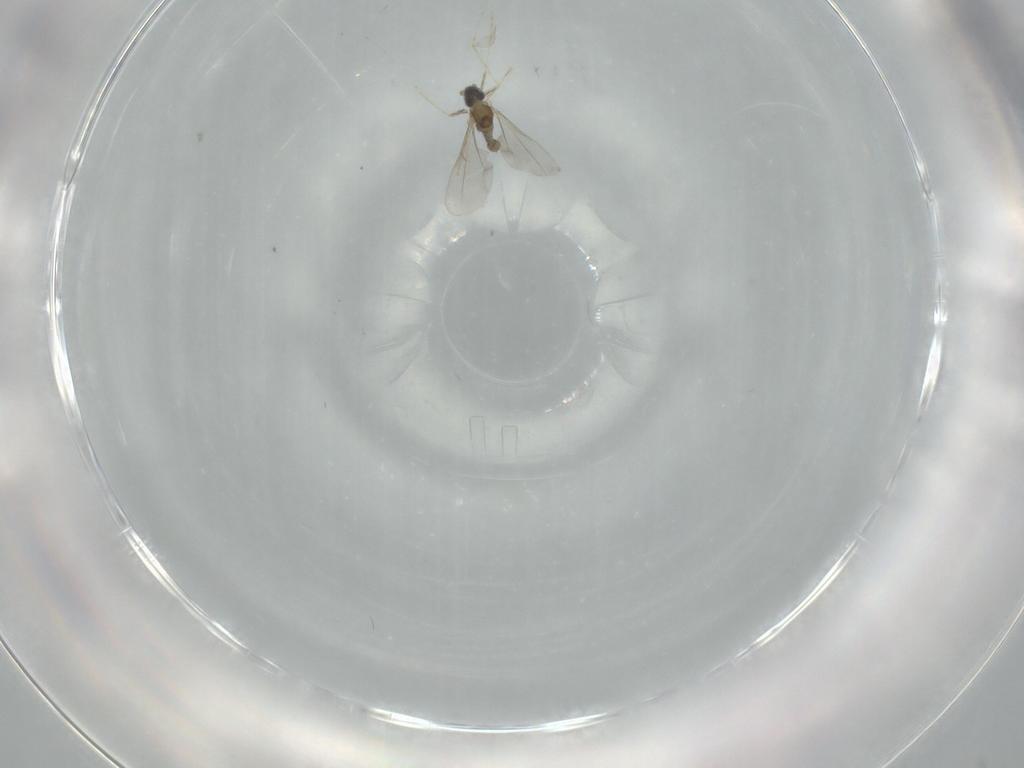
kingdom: Animalia
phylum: Arthropoda
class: Insecta
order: Diptera
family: Cecidomyiidae
